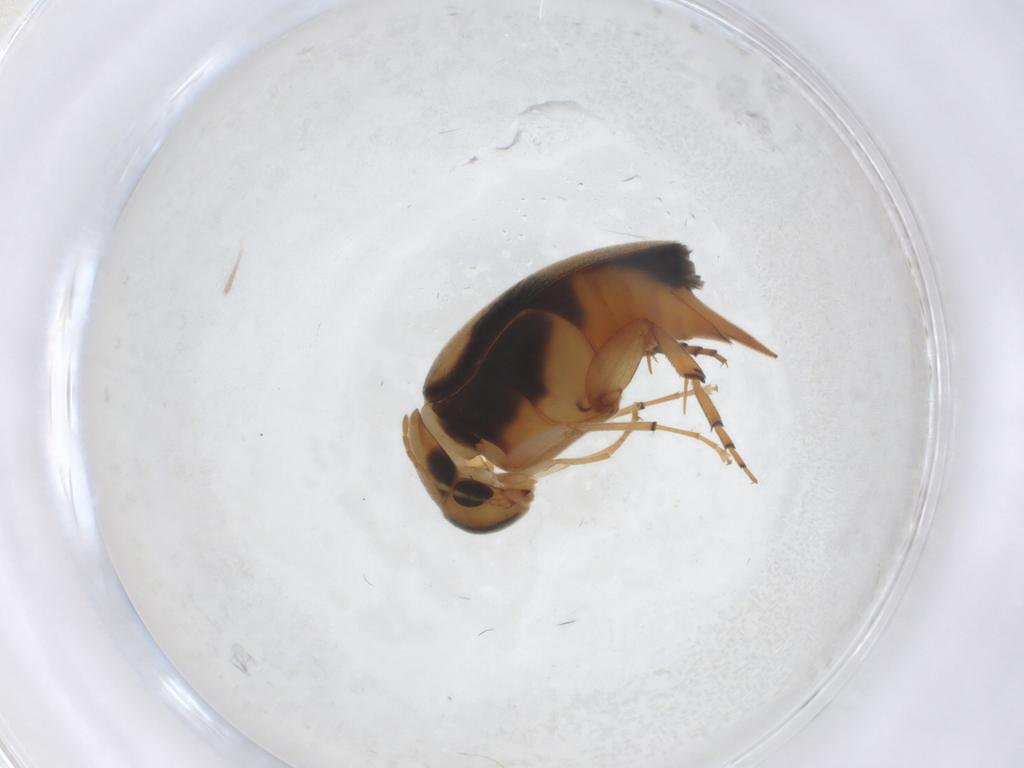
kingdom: Animalia
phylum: Arthropoda
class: Insecta
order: Coleoptera
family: Mordellidae
